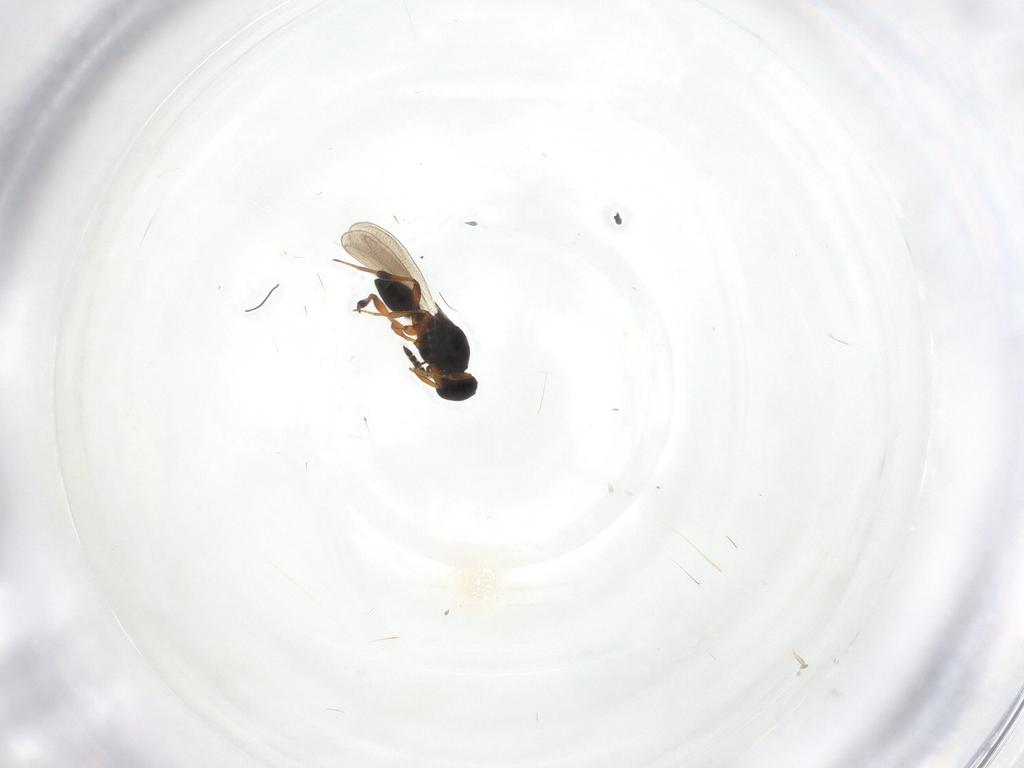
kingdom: Animalia
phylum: Arthropoda
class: Insecta
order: Hymenoptera
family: Platygastridae
